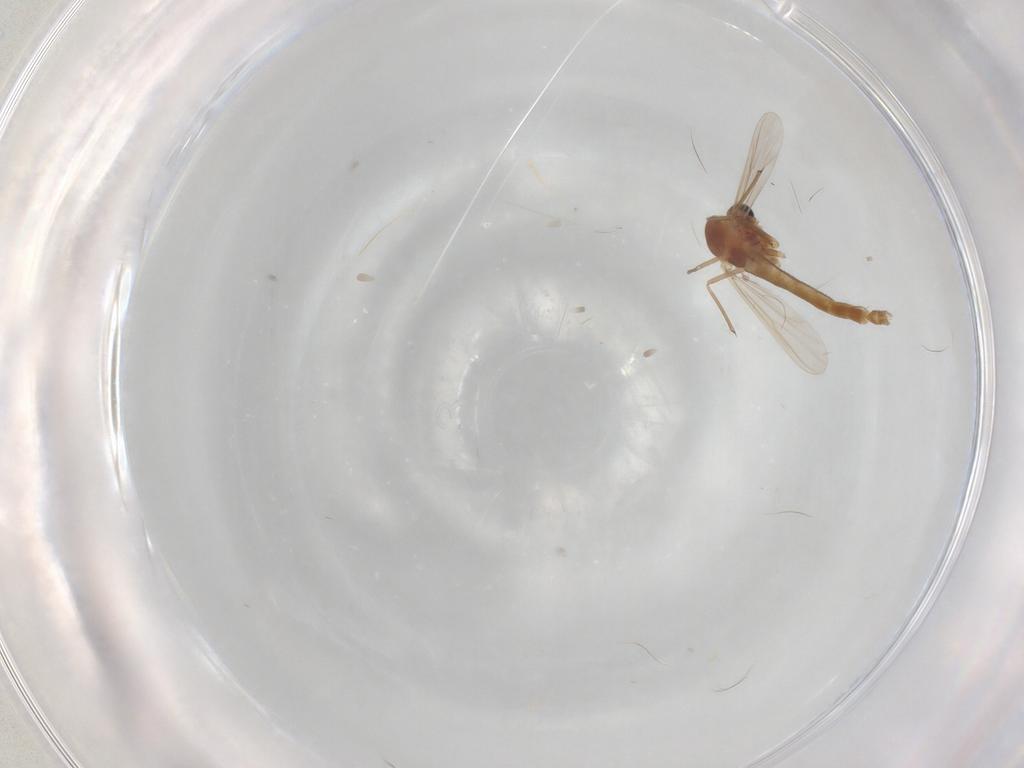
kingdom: Animalia
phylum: Arthropoda
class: Insecta
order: Diptera
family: Chironomidae
